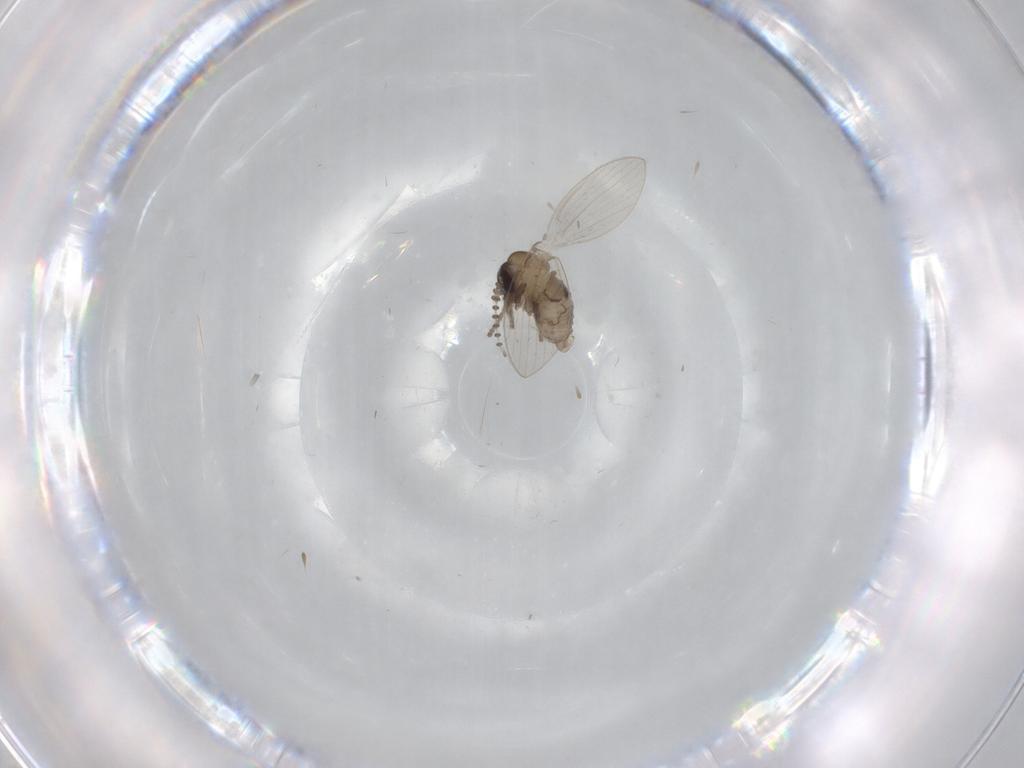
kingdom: Animalia
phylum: Arthropoda
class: Insecta
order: Diptera
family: Psychodidae
